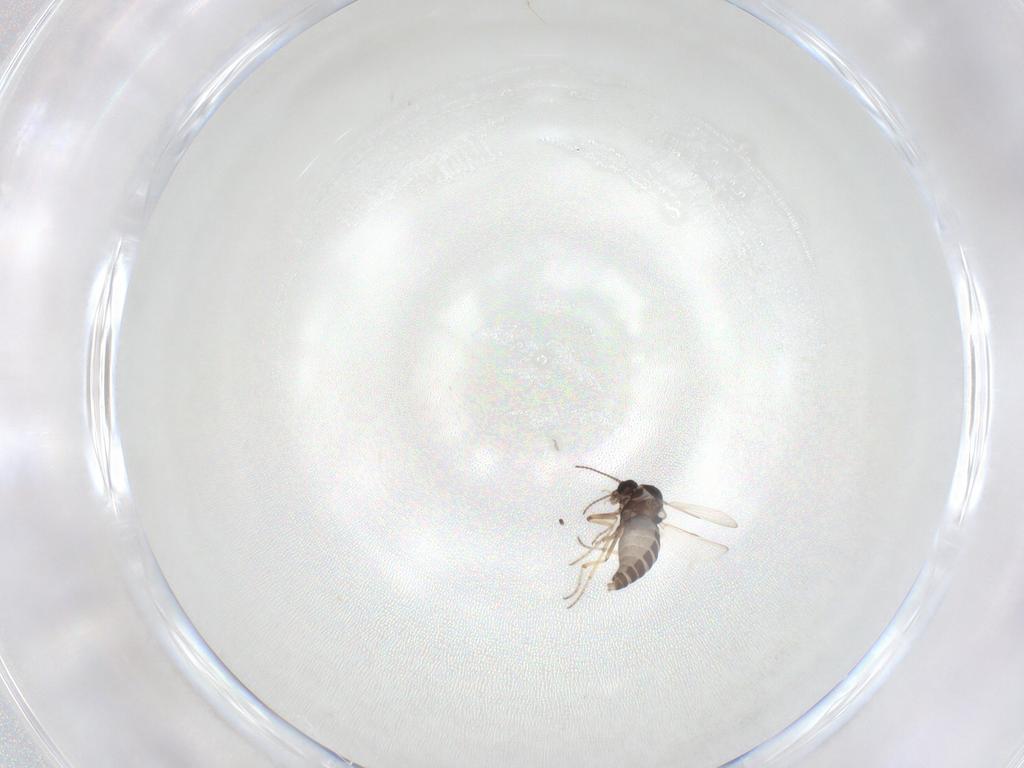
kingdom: Animalia
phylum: Arthropoda
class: Insecta
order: Diptera
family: Ceratopogonidae
